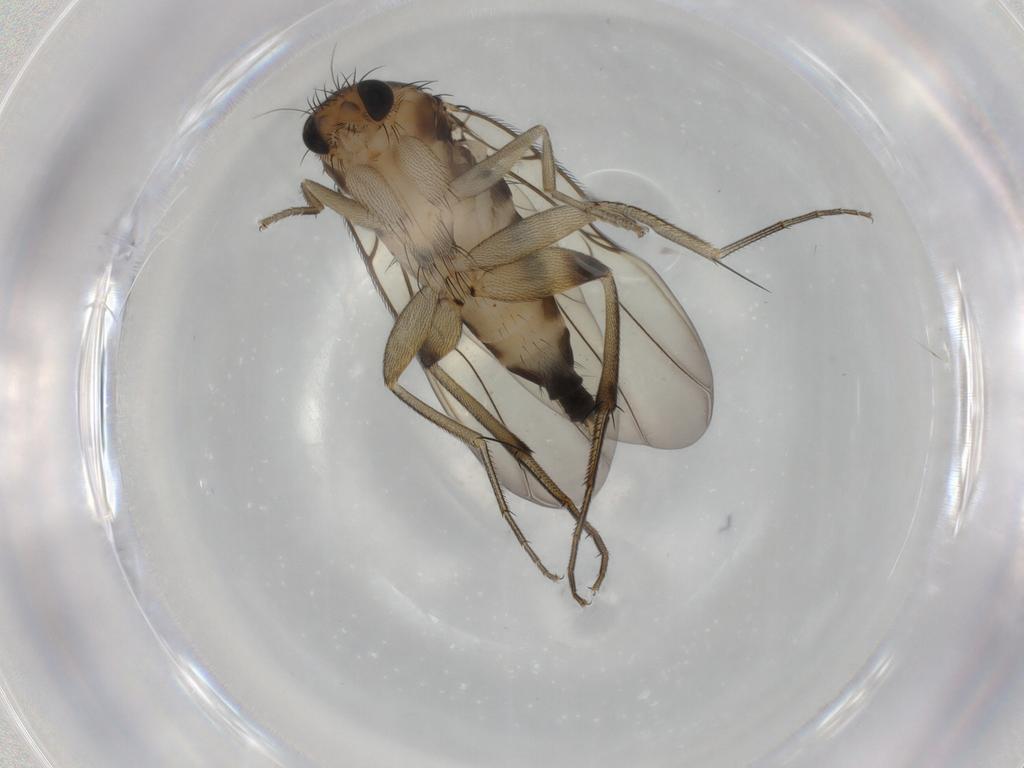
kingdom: Animalia
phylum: Arthropoda
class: Insecta
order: Diptera
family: Phoridae
